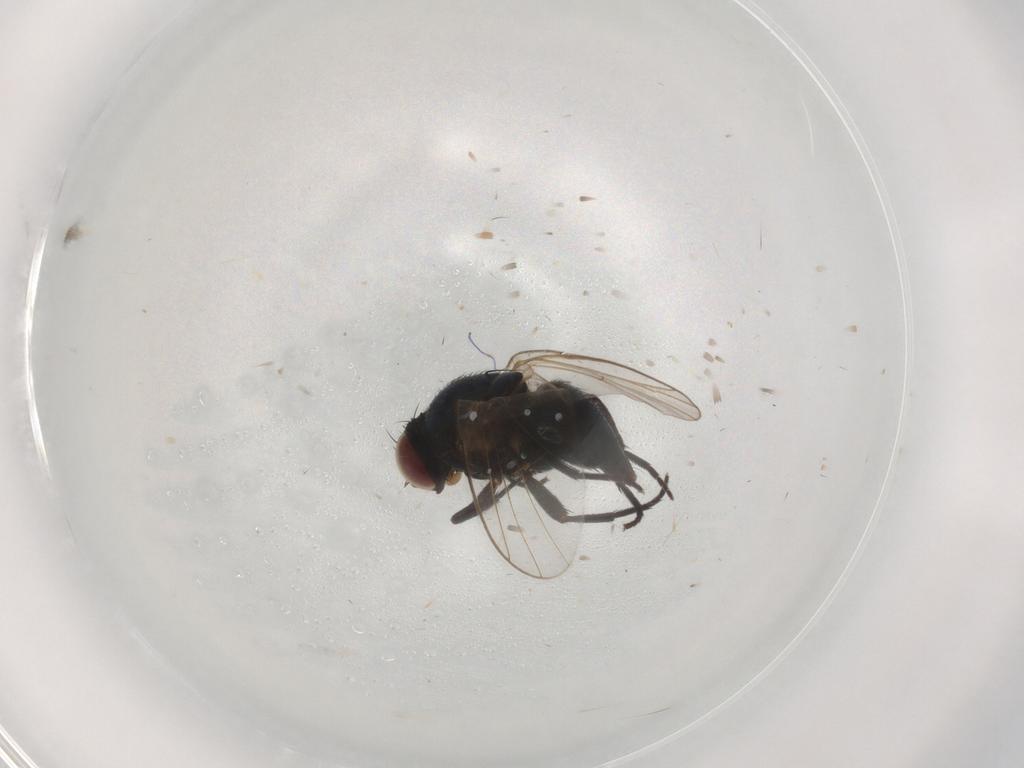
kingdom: Animalia
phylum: Arthropoda
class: Insecta
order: Diptera
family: Agromyzidae
